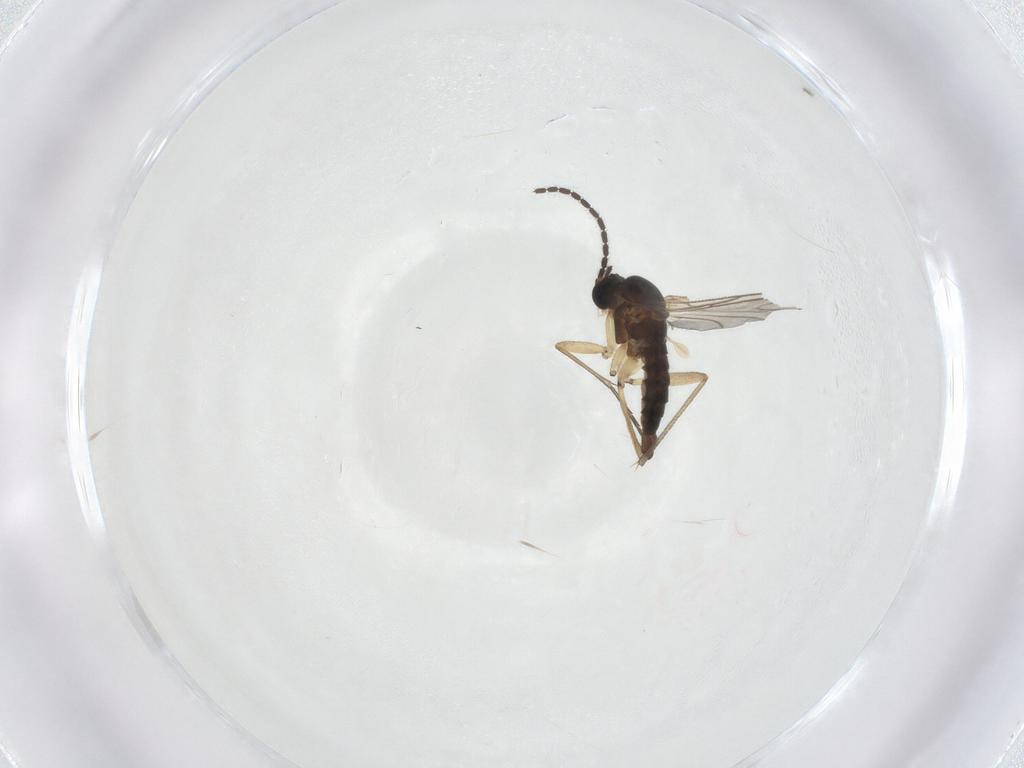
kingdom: Animalia
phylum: Arthropoda
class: Insecta
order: Diptera
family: Sciaridae
